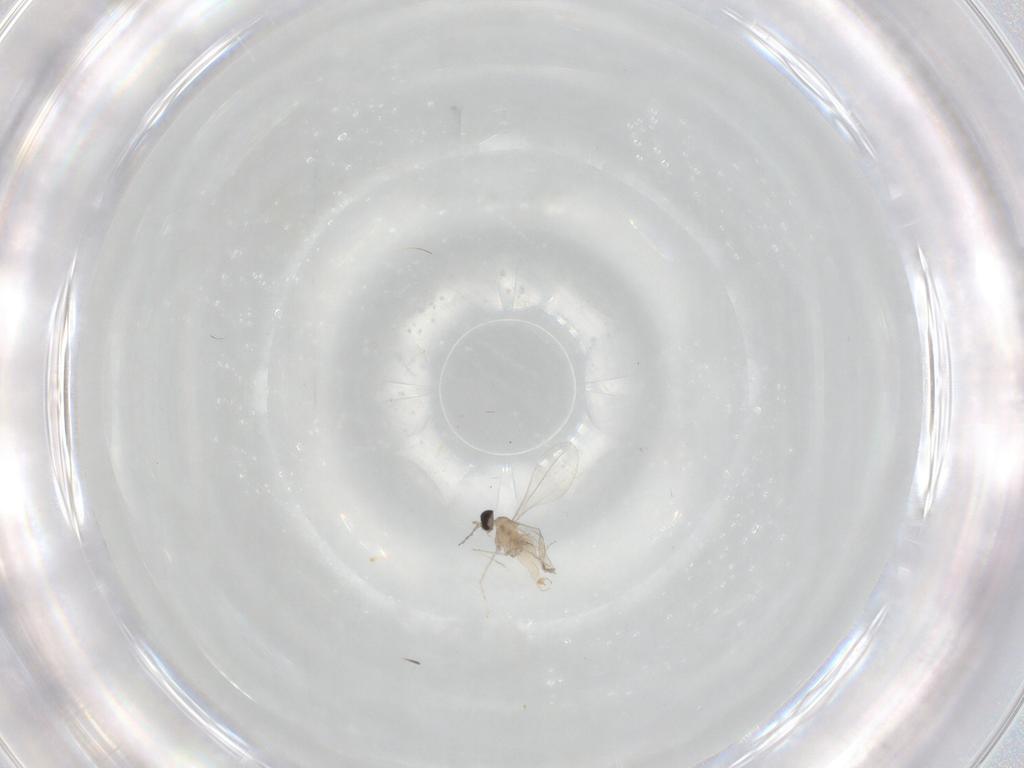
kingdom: Animalia
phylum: Arthropoda
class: Insecta
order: Diptera
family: Cecidomyiidae
